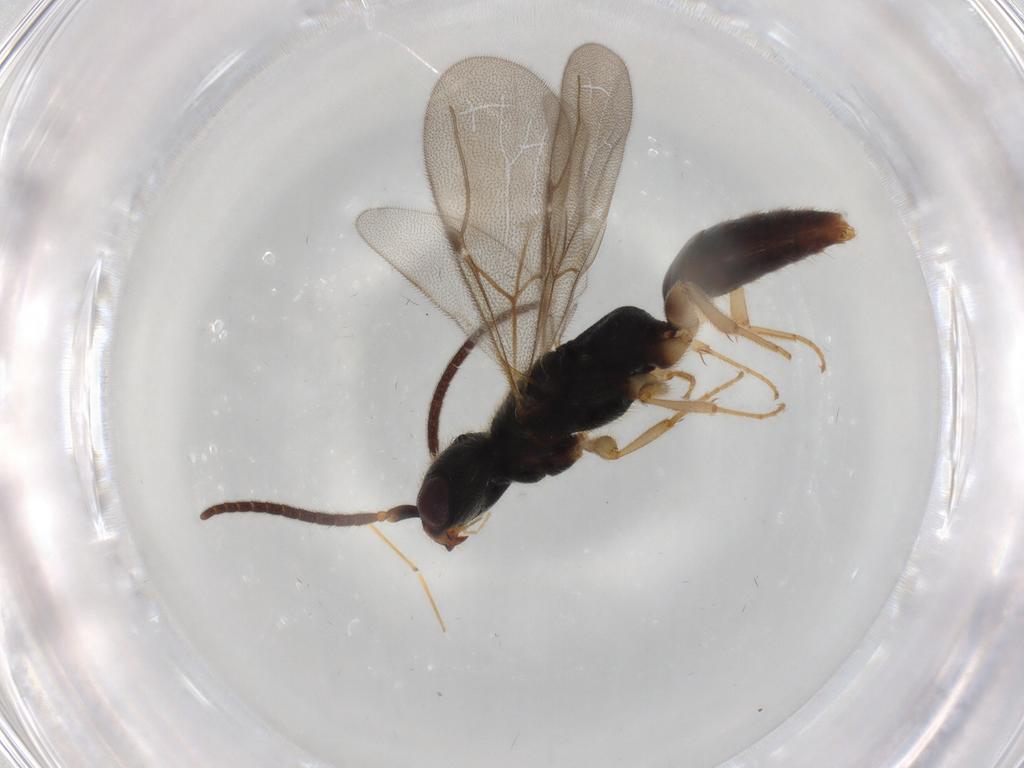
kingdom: Animalia
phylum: Arthropoda
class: Insecta
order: Hymenoptera
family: Bethylidae
